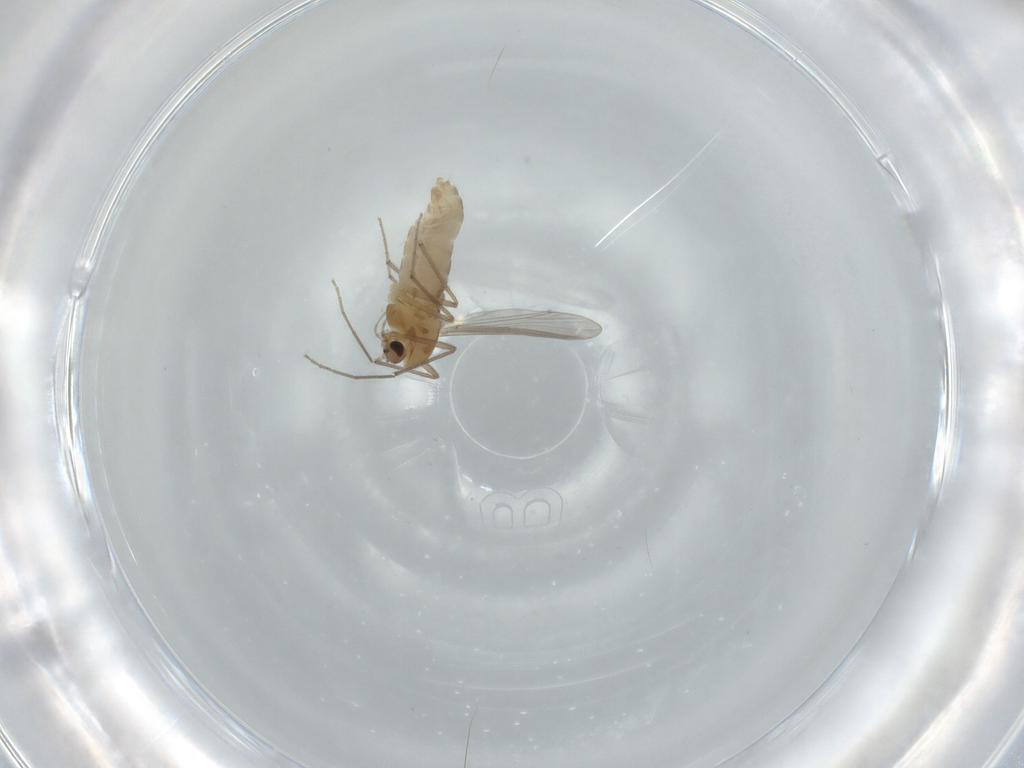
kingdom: Animalia
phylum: Arthropoda
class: Insecta
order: Diptera
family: Chironomidae
